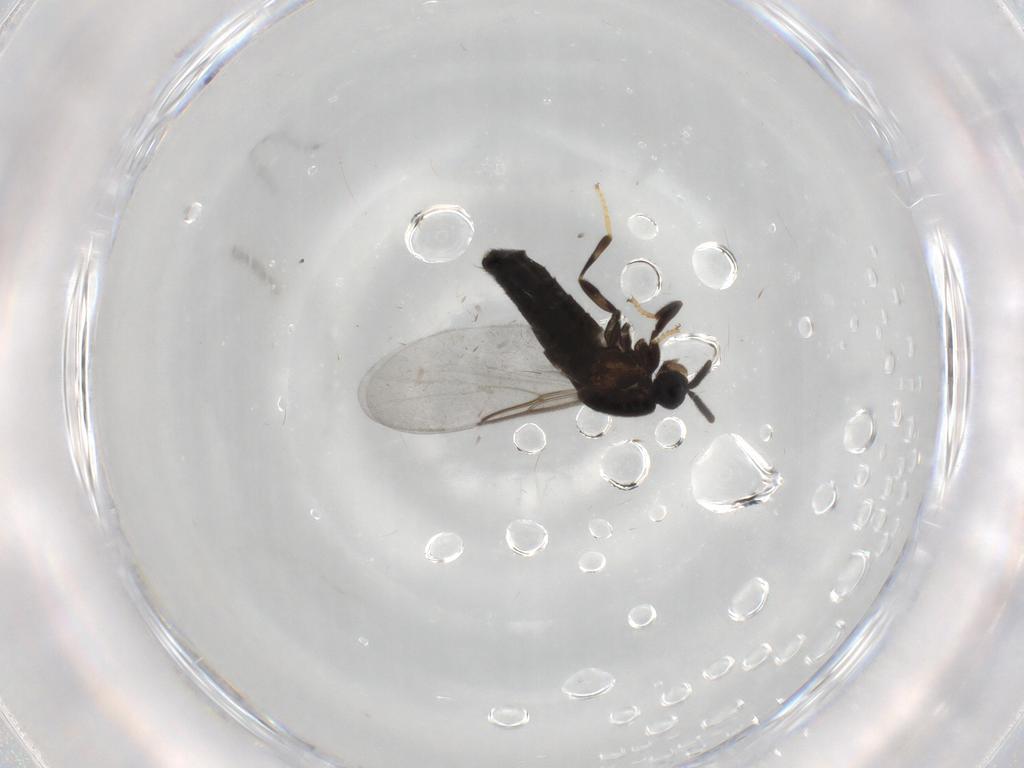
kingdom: Animalia
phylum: Arthropoda
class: Insecta
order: Diptera
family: Scatopsidae
